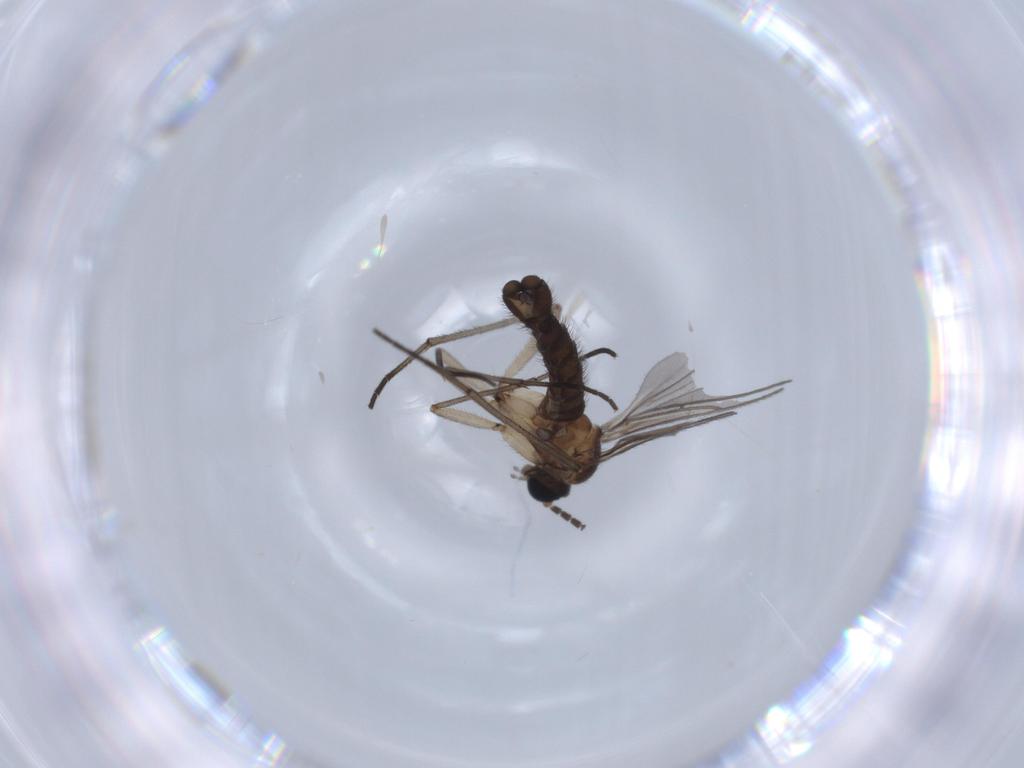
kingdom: Animalia
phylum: Arthropoda
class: Insecta
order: Diptera
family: Sciaridae
